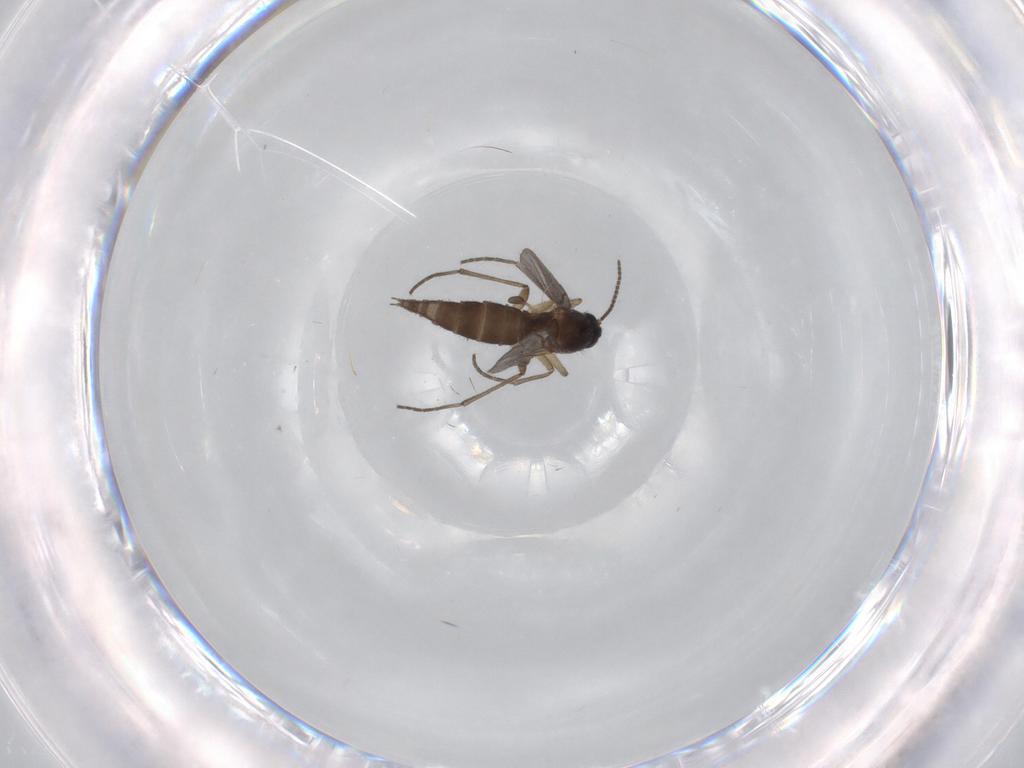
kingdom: Animalia
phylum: Arthropoda
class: Insecta
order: Diptera
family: Sciaridae
